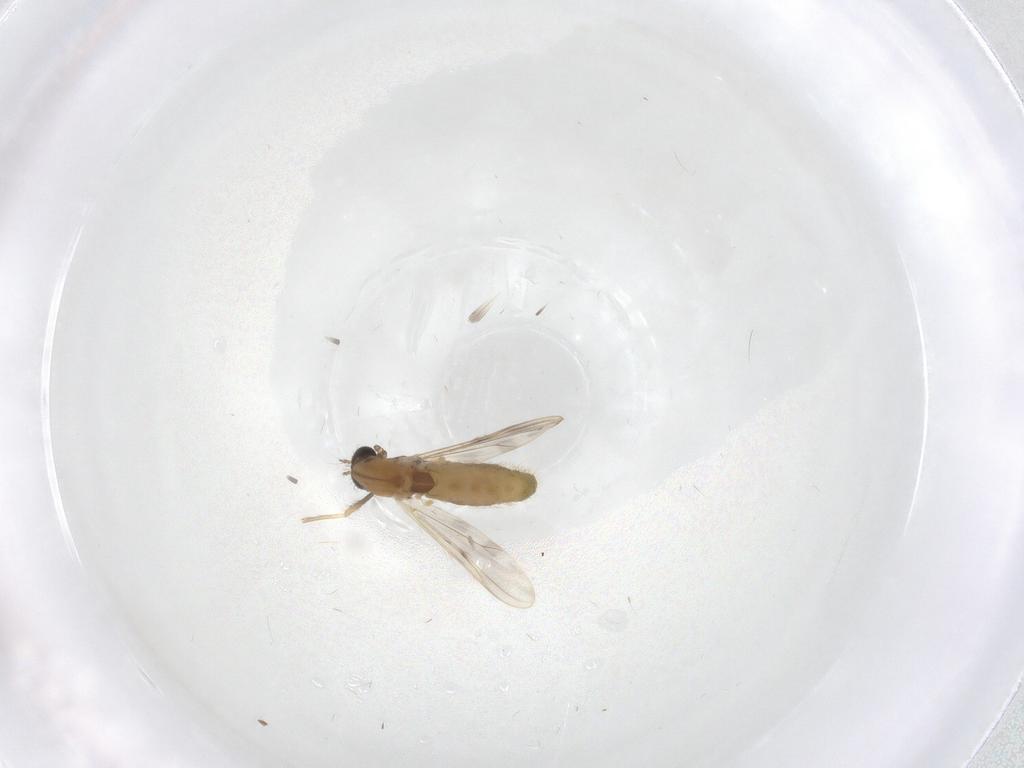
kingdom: Animalia
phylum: Arthropoda
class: Insecta
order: Diptera
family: Chironomidae
